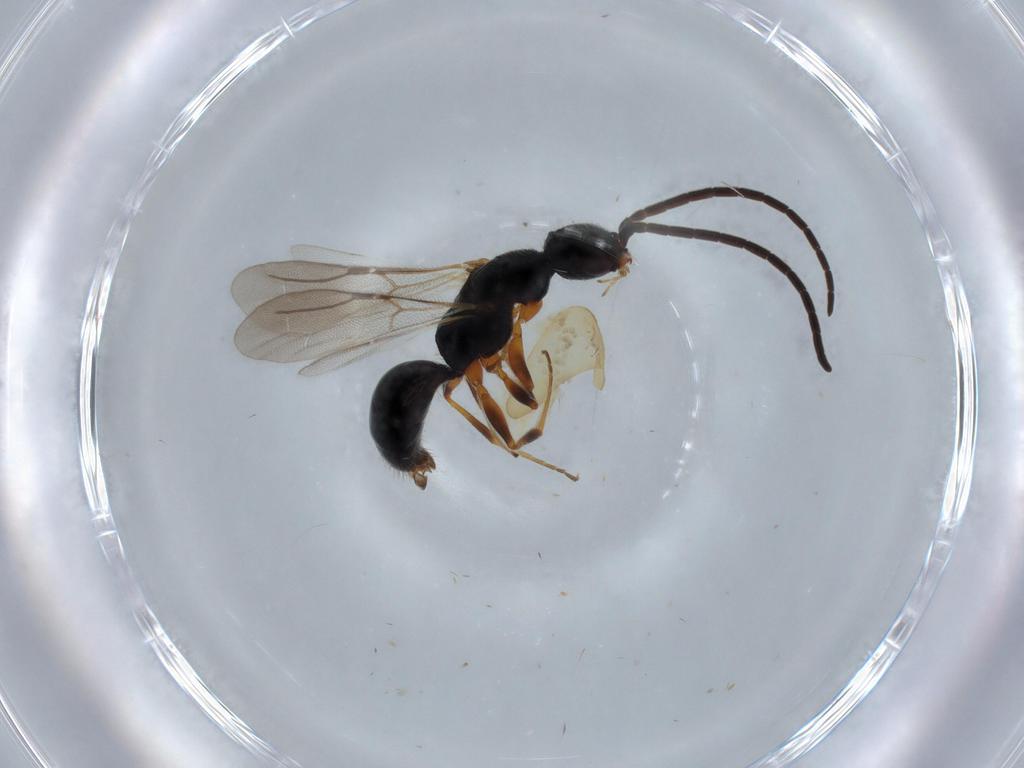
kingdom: Animalia
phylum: Arthropoda
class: Insecta
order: Hymenoptera
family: Bethylidae
